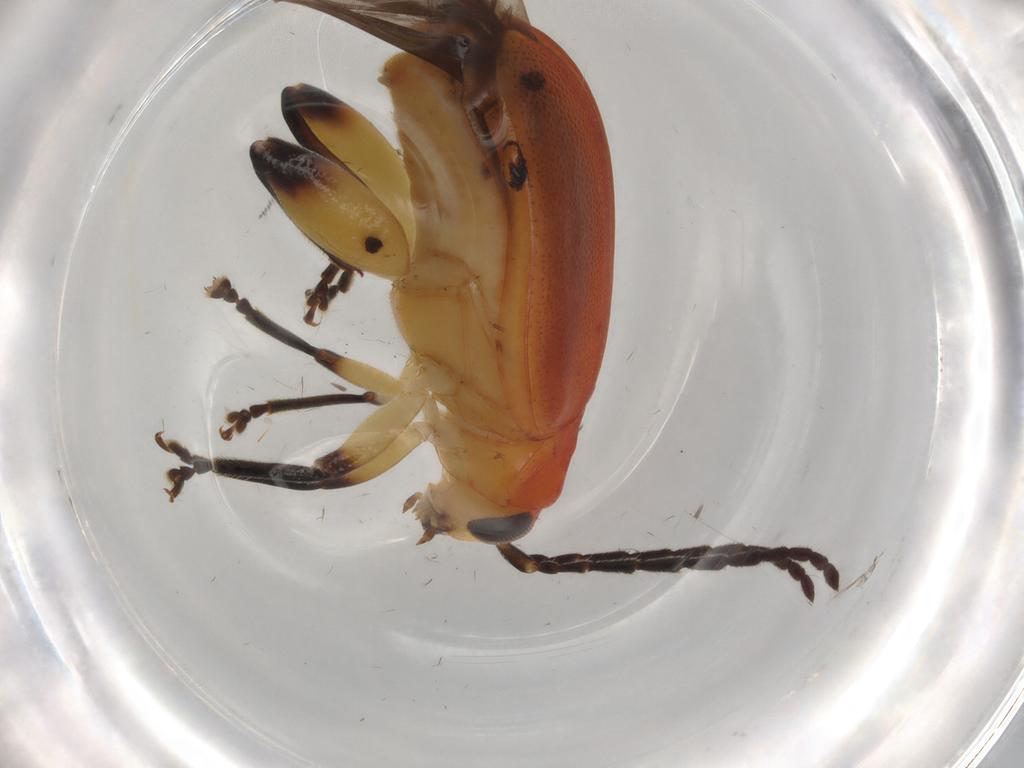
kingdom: Animalia
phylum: Arthropoda
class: Insecta
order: Coleoptera
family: Elateridae
